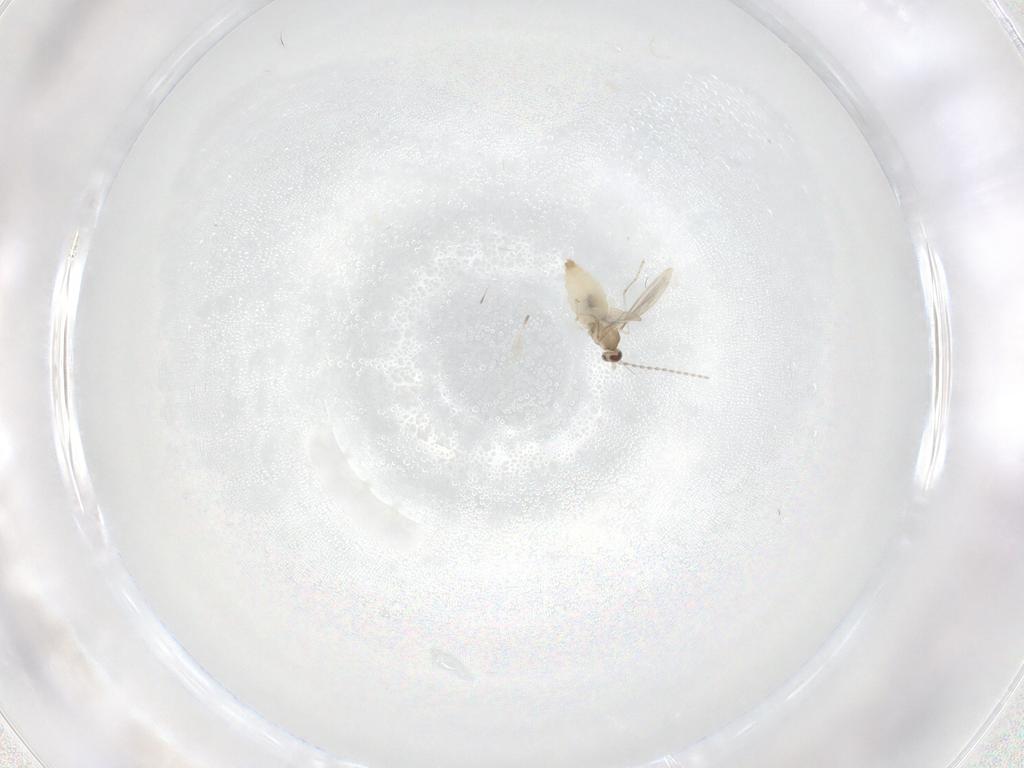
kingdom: Animalia
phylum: Arthropoda
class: Insecta
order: Diptera
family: Cecidomyiidae
